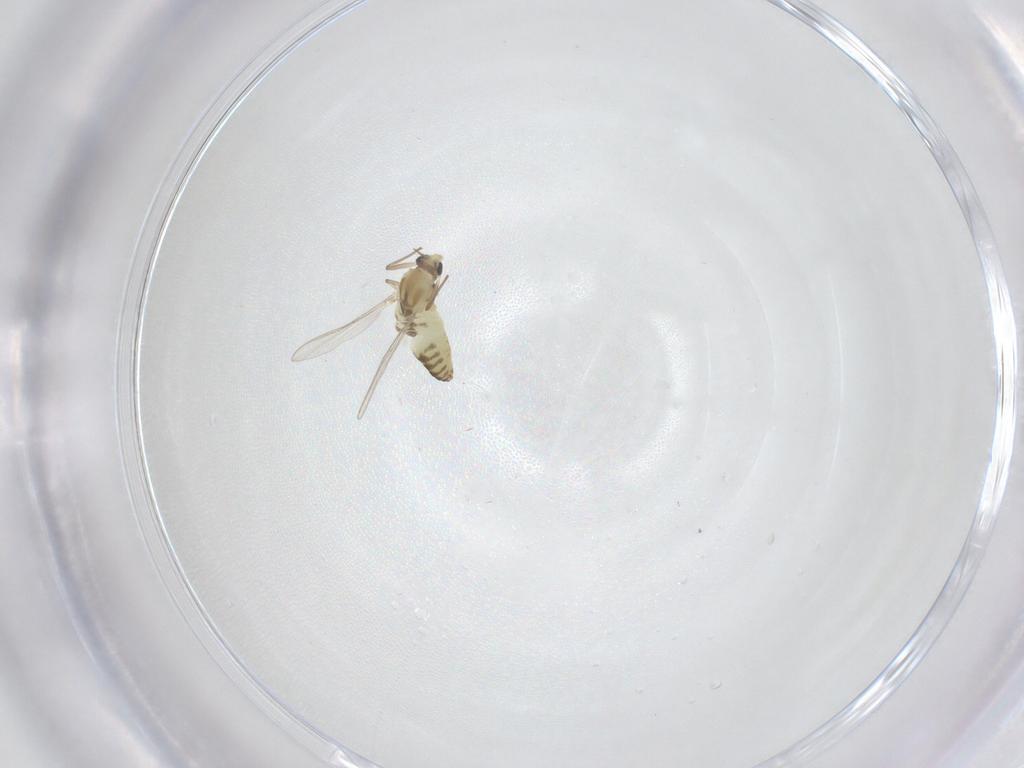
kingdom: Animalia
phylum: Arthropoda
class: Insecta
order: Diptera
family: Chironomidae
